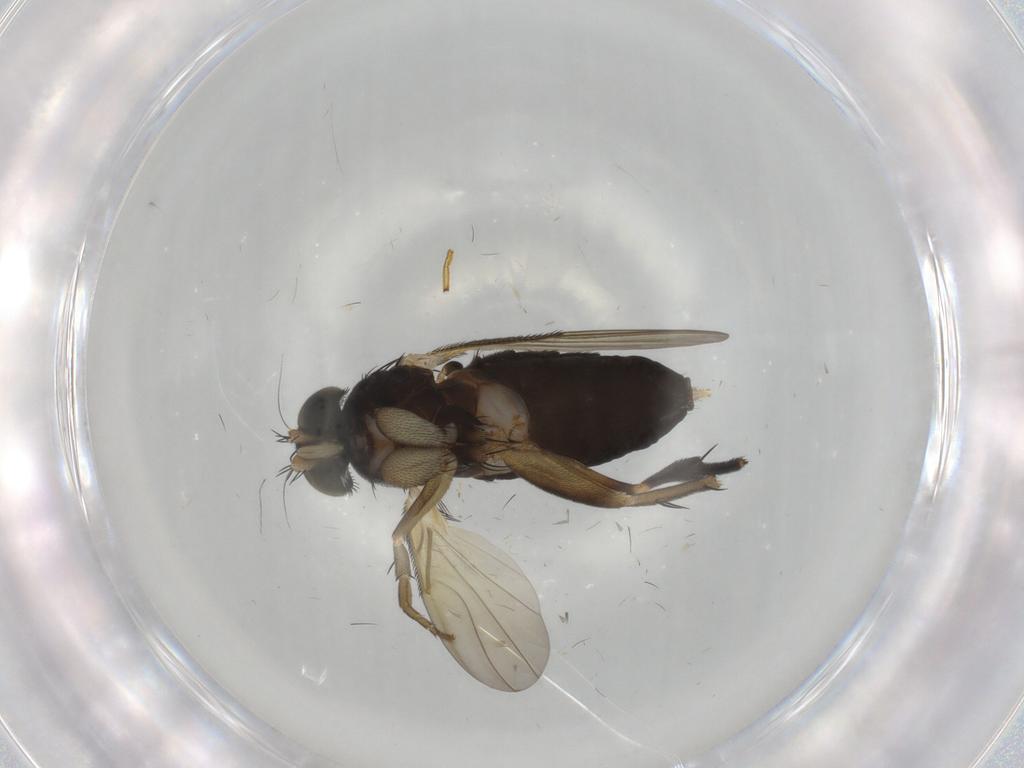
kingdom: Animalia
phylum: Arthropoda
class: Insecta
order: Diptera
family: Phoridae
